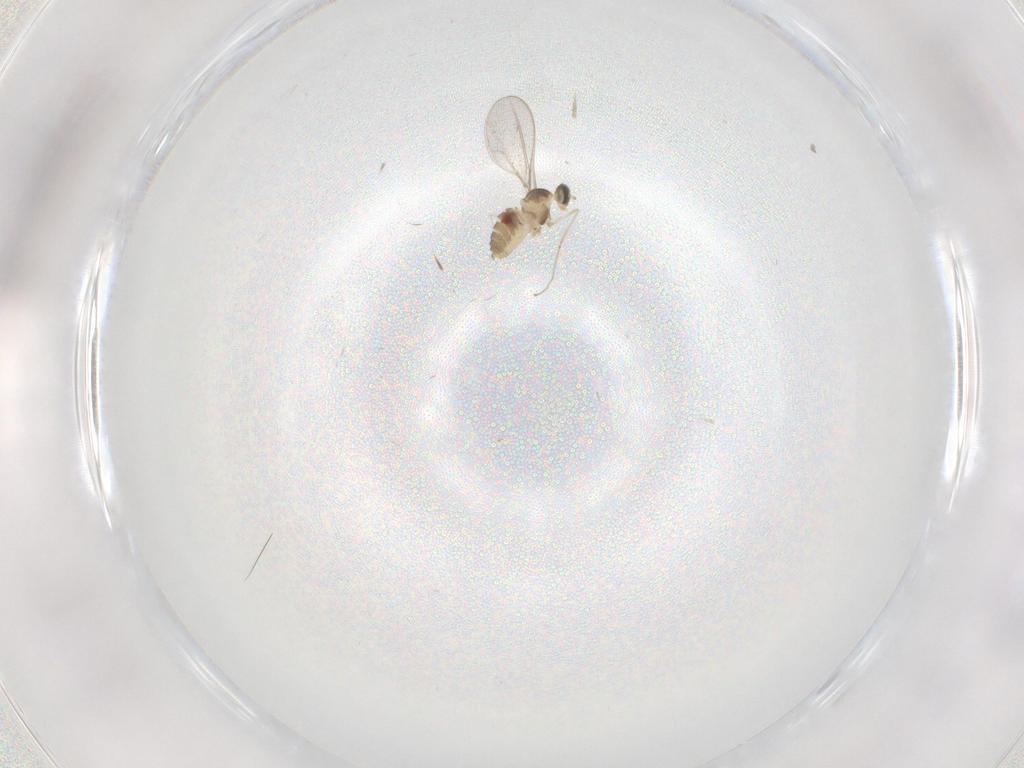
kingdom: Animalia
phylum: Arthropoda
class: Insecta
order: Diptera
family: Cecidomyiidae
